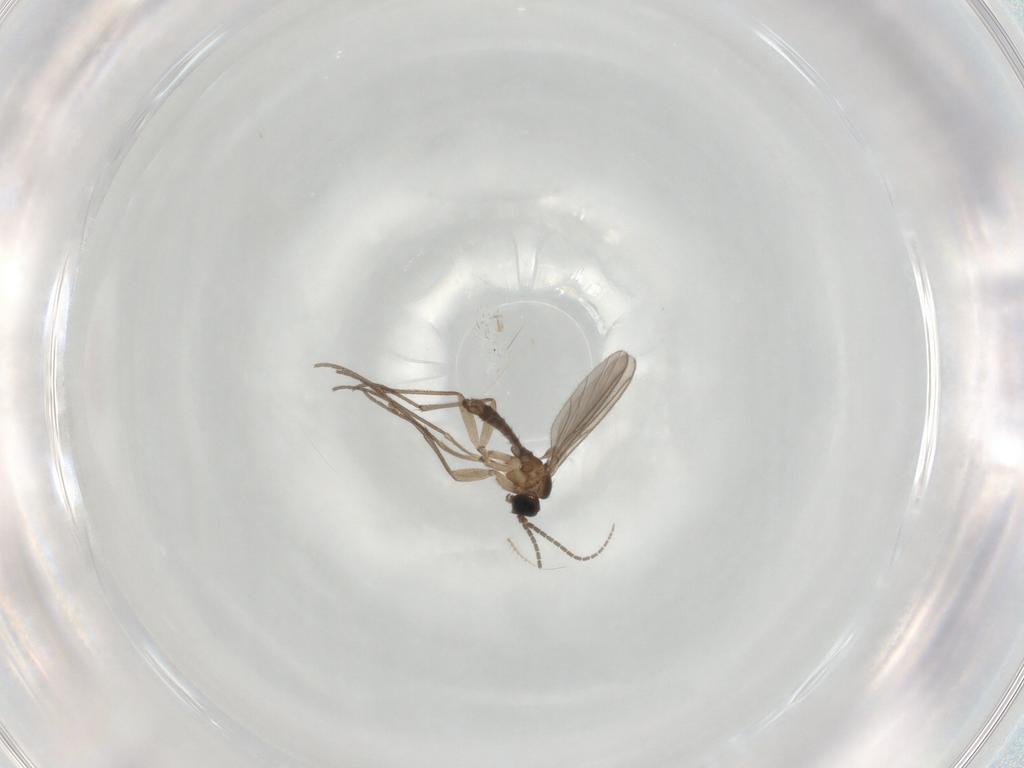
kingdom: Animalia
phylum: Arthropoda
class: Insecta
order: Diptera
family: Sciaridae
